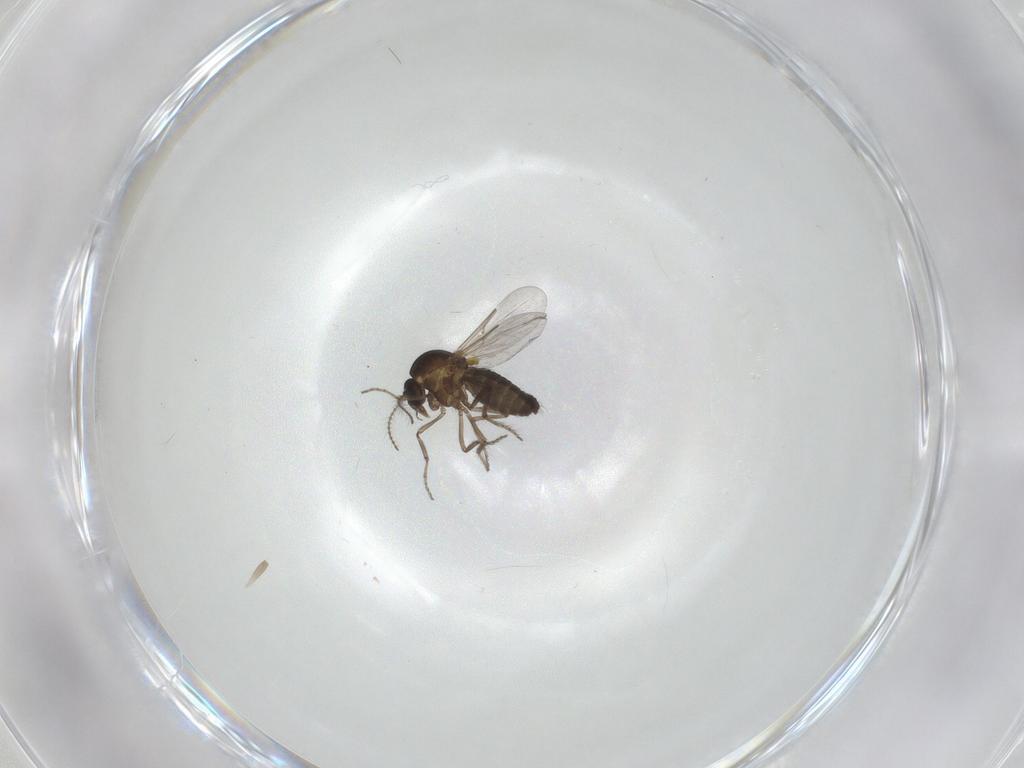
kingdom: Animalia
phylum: Arthropoda
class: Insecta
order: Diptera
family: Ceratopogonidae
